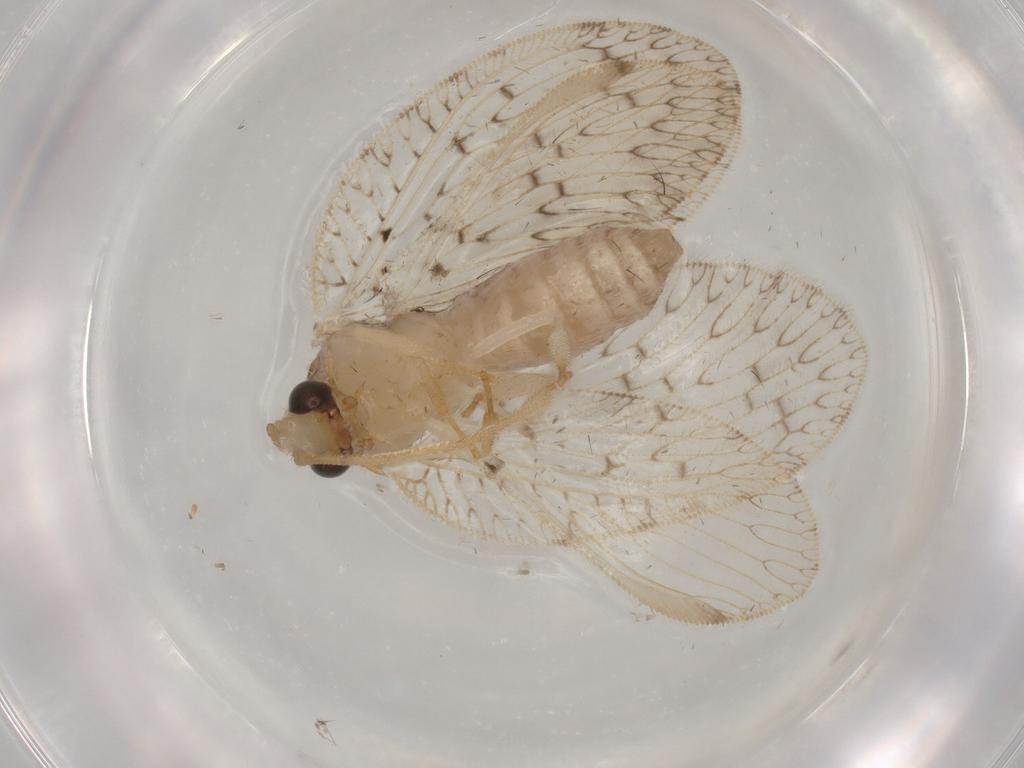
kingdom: Animalia
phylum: Arthropoda
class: Insecta
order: Neuroptera
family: Hemerobiidae
